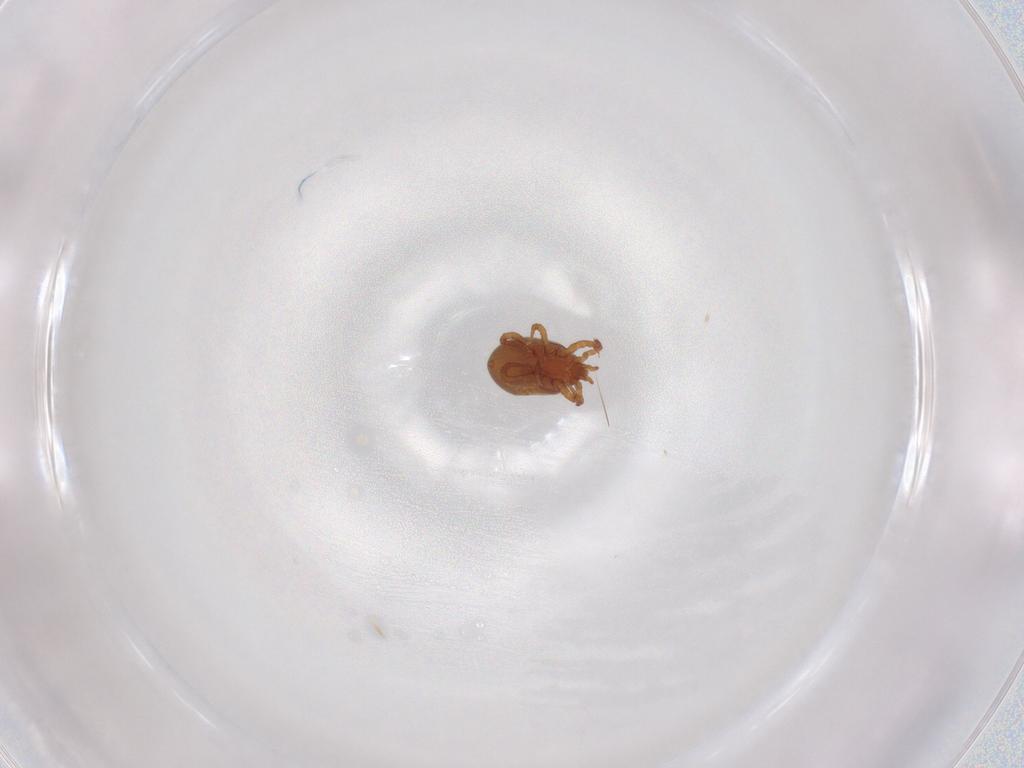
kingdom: Animalia
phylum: Arthropoda
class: Arachnida
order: Mesostigmata
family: Parasitidae
